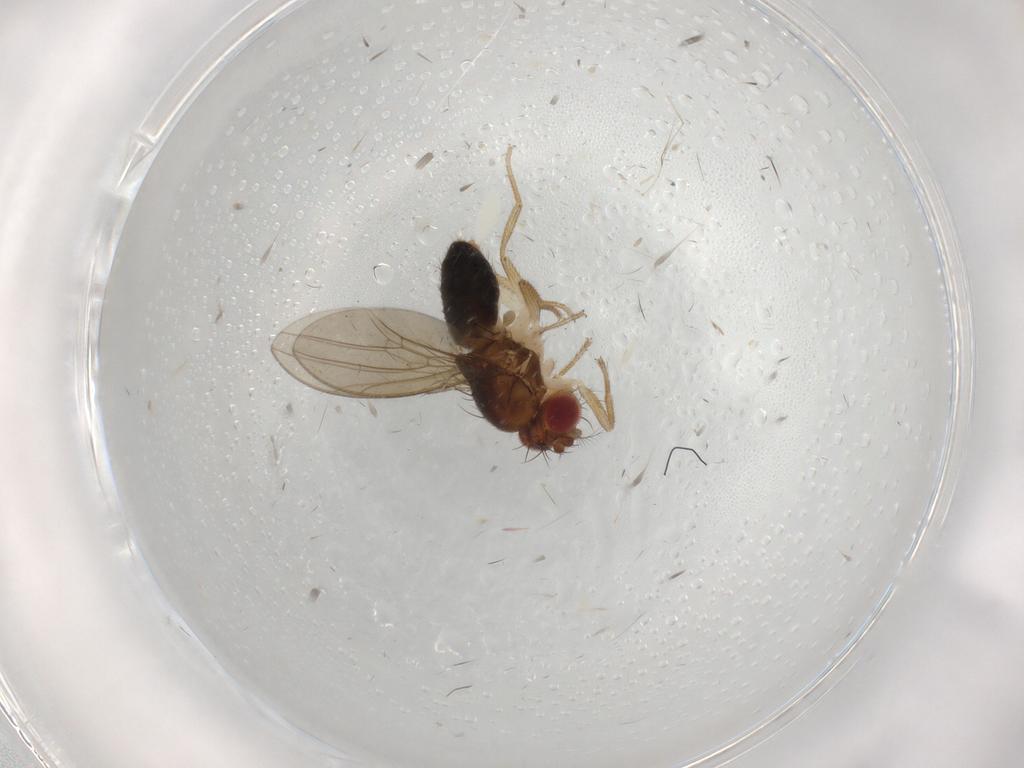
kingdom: Animalia
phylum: Arthropoda
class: Insecta
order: Diptera
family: Drosophilidae
